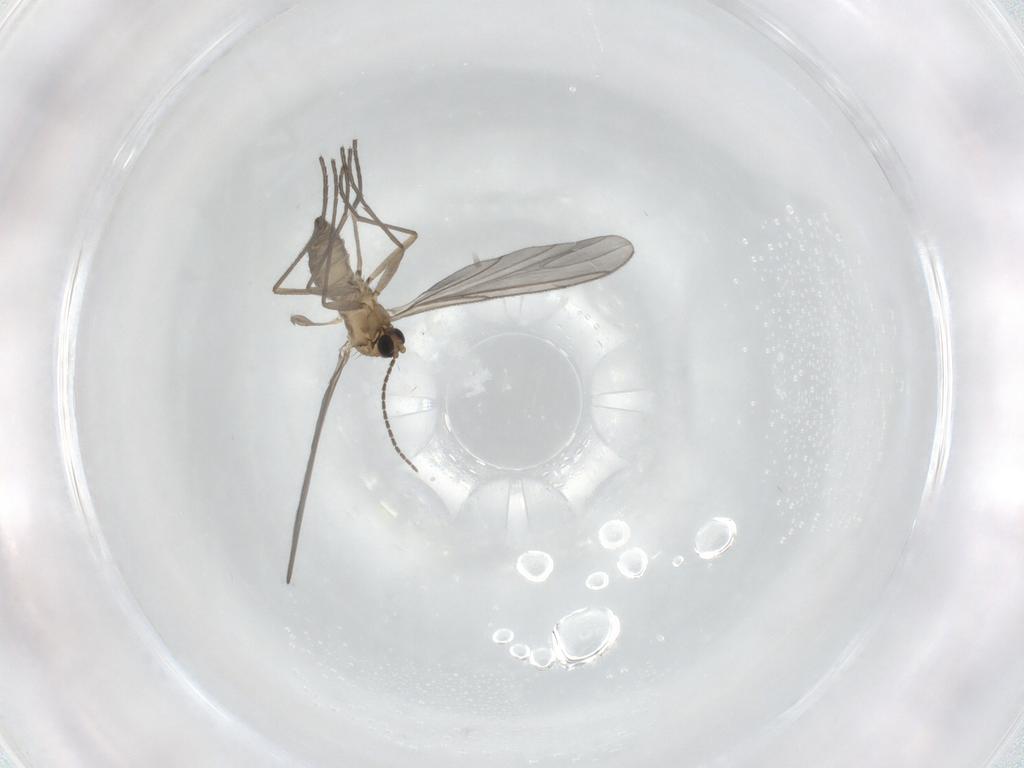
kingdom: Animalia
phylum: Arthropoda
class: Insecta
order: Diptera
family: Sciaridae
